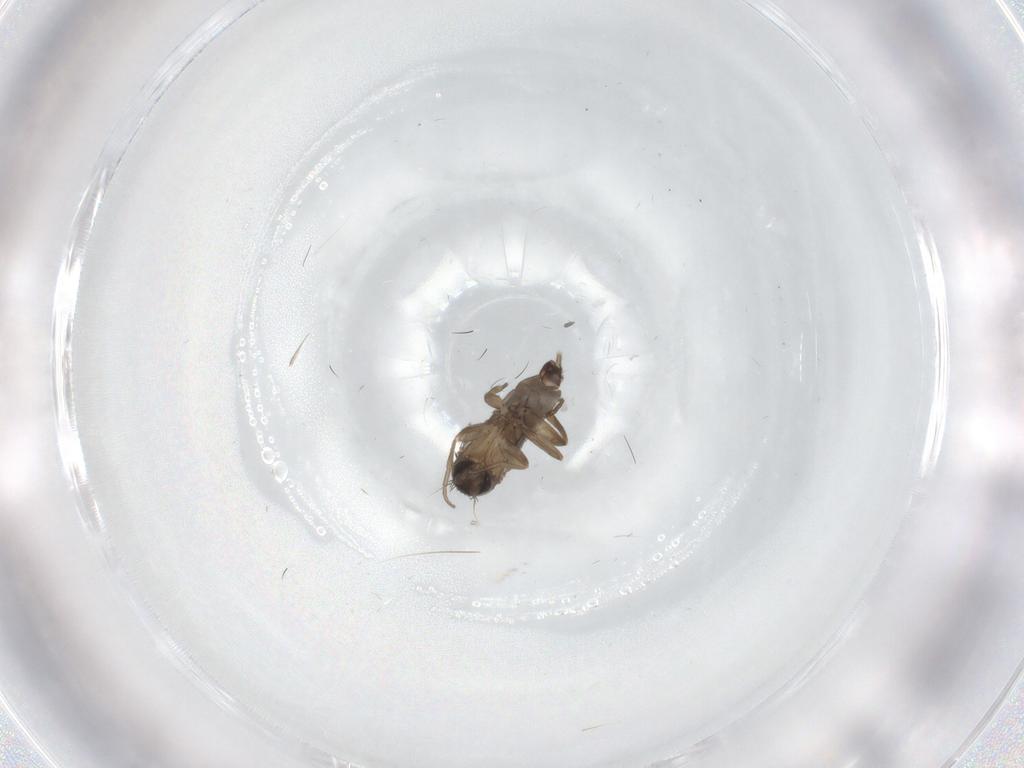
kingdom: Animalia
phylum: Arthropoda
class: Insecta
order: Diptera
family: Phoridae
